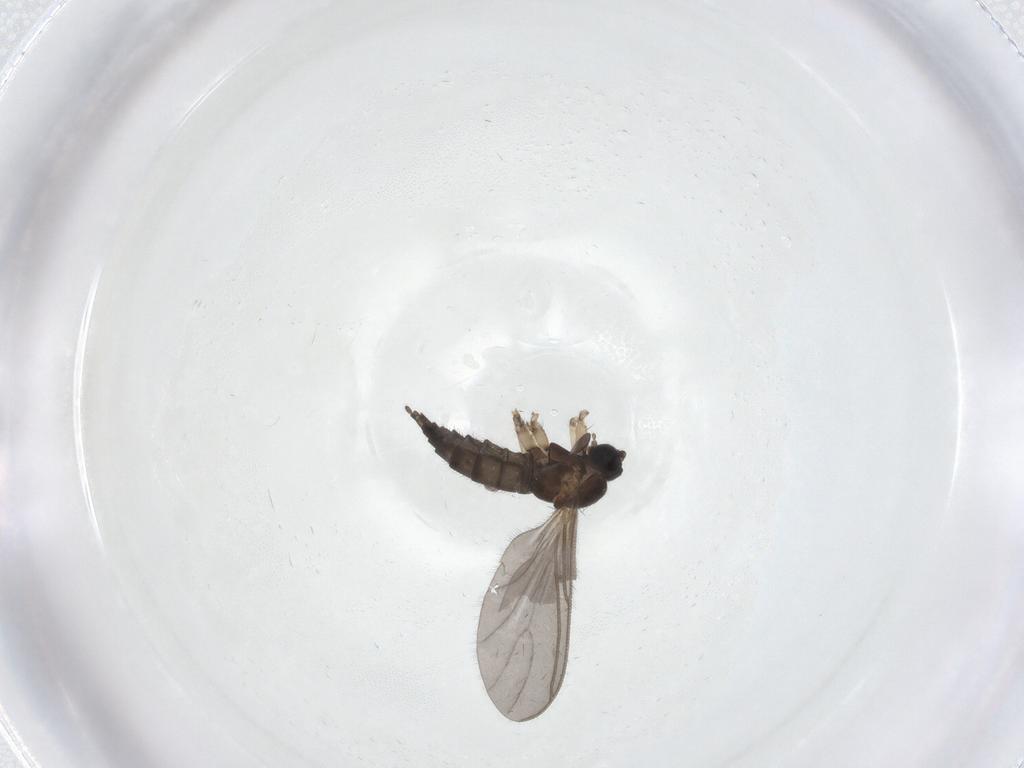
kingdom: Animalia
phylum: Arthropoda
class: Insecta
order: Diptera
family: Sciaridae
